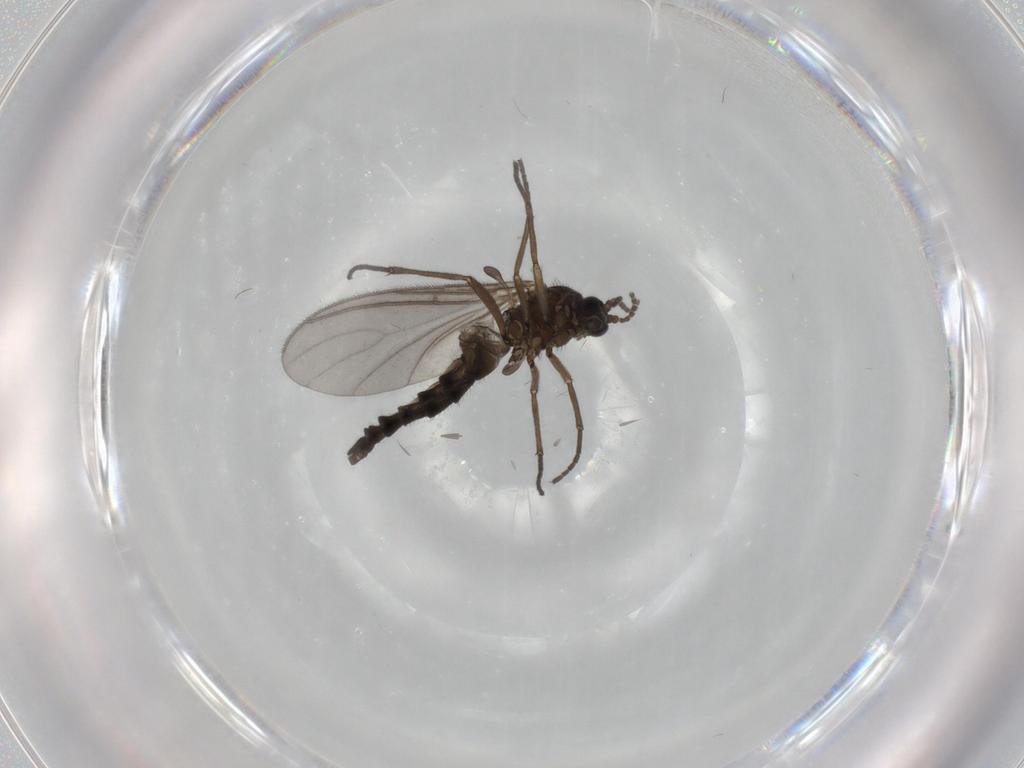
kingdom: Animalia
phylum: Arthropoda
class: Insecta
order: Diptera
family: Sciaridae
